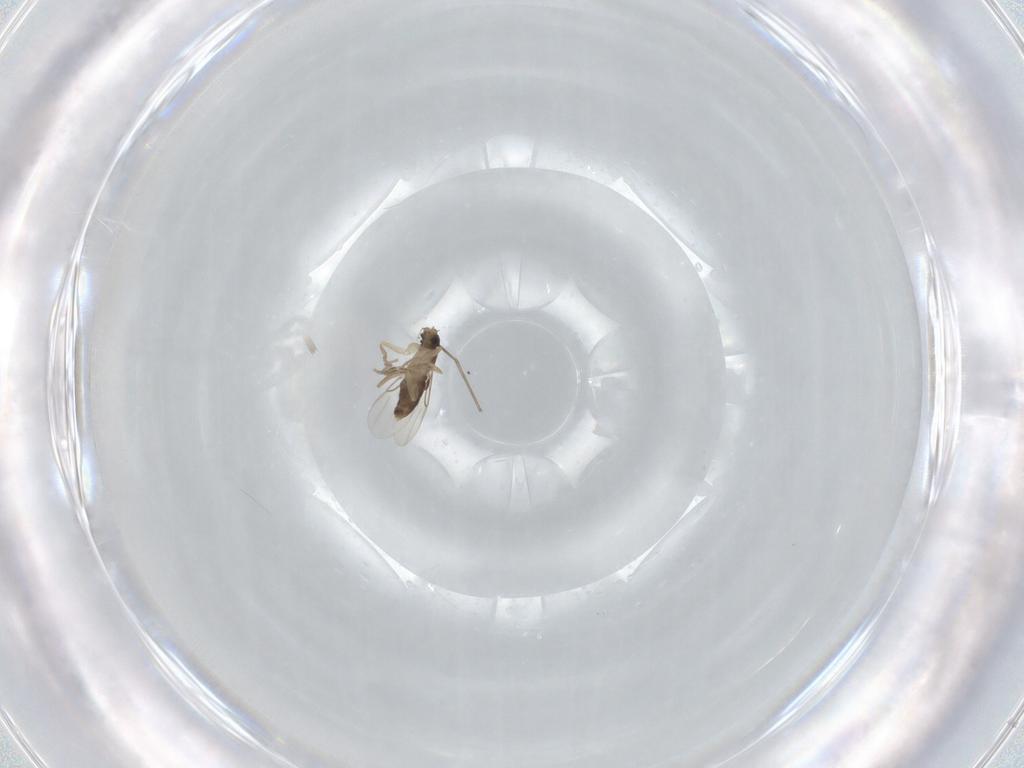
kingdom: Animalia
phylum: Arthropoda
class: Insecta
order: Diptera
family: Phoridae
